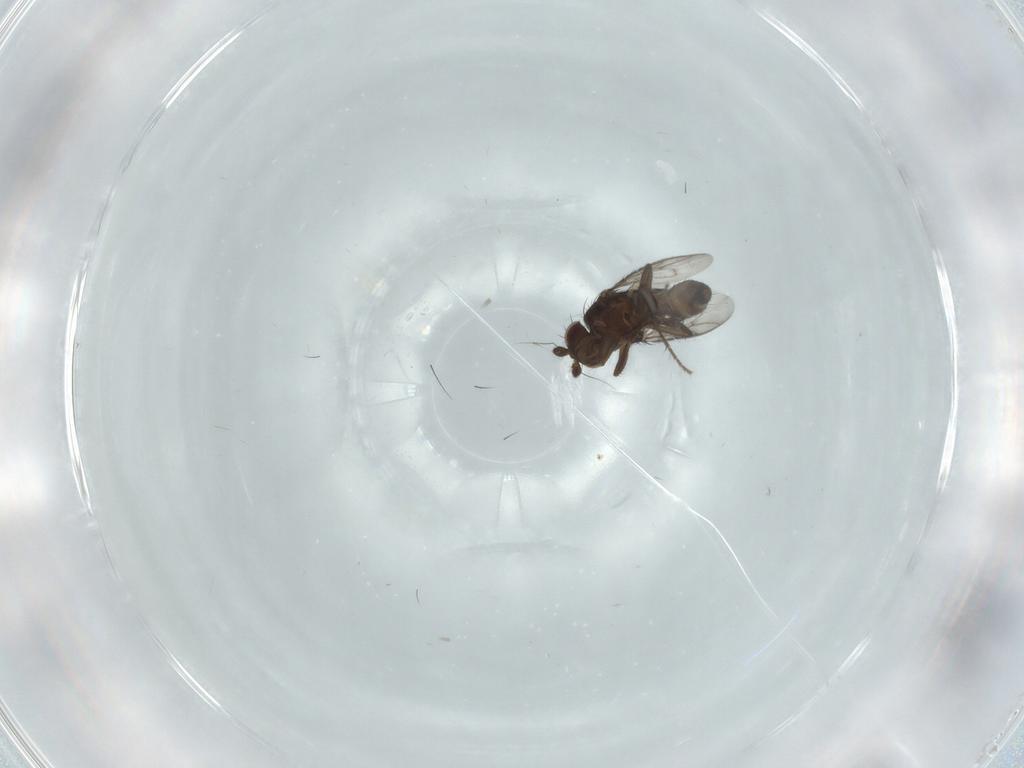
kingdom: Animalia
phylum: Arthropoda
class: Insecta
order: Diptera
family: Sphaeroceridae
